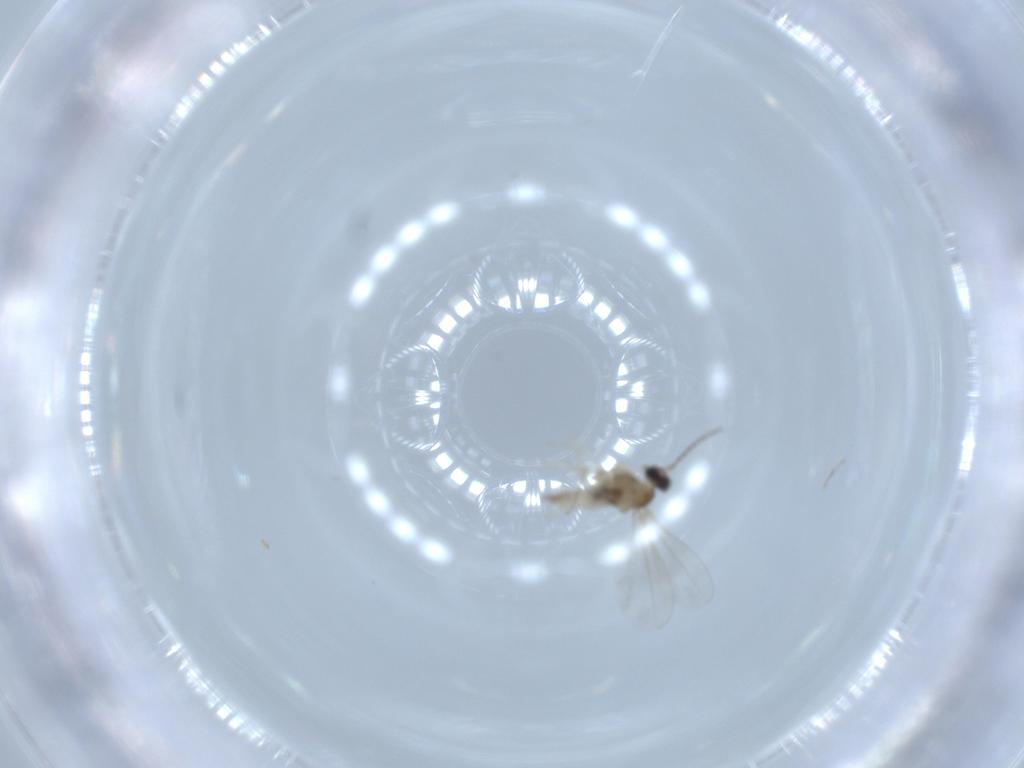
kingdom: Animalia
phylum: Arthropoda
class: Insecta
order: Diptera
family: Cecidomyiidae
